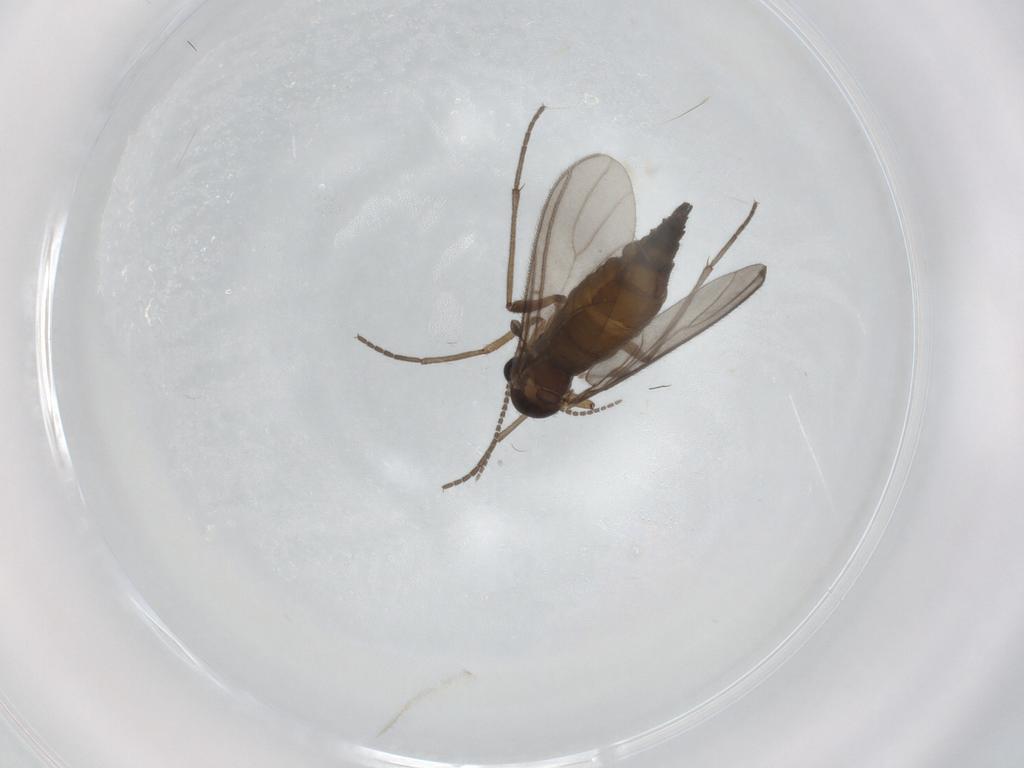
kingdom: Animalia
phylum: Arthropoda
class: Insecta
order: Diptera
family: Sciaridae
